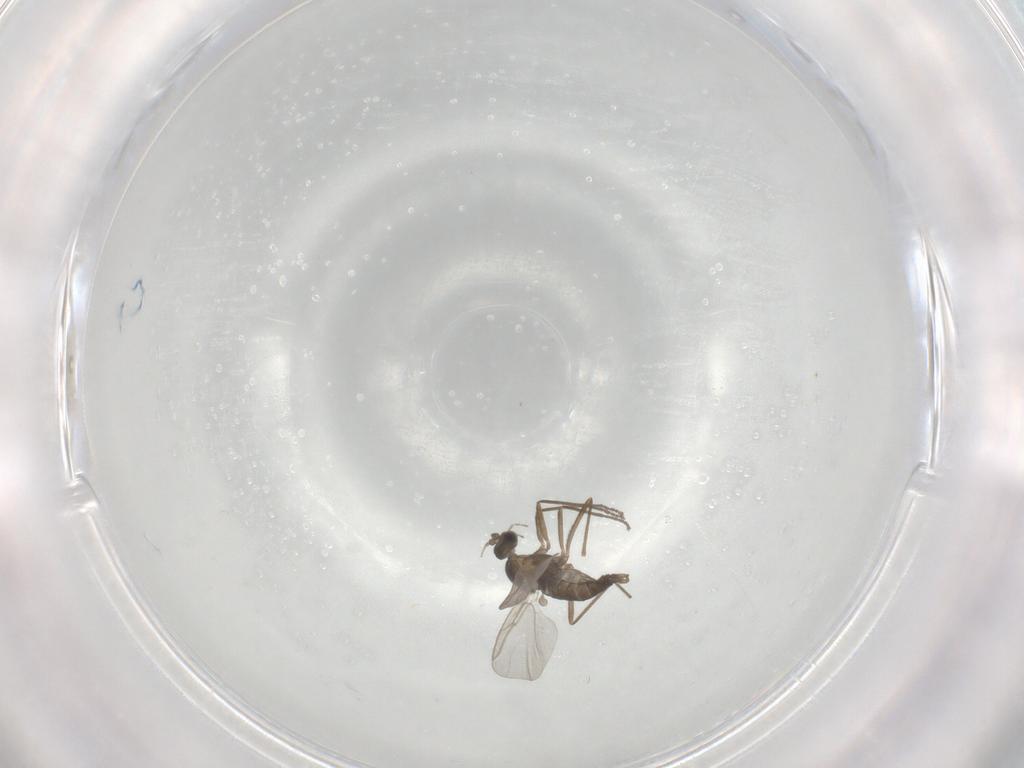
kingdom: Animalia
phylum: Arthropoda
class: Insecta
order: Diptera
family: Cecidomyiidae
